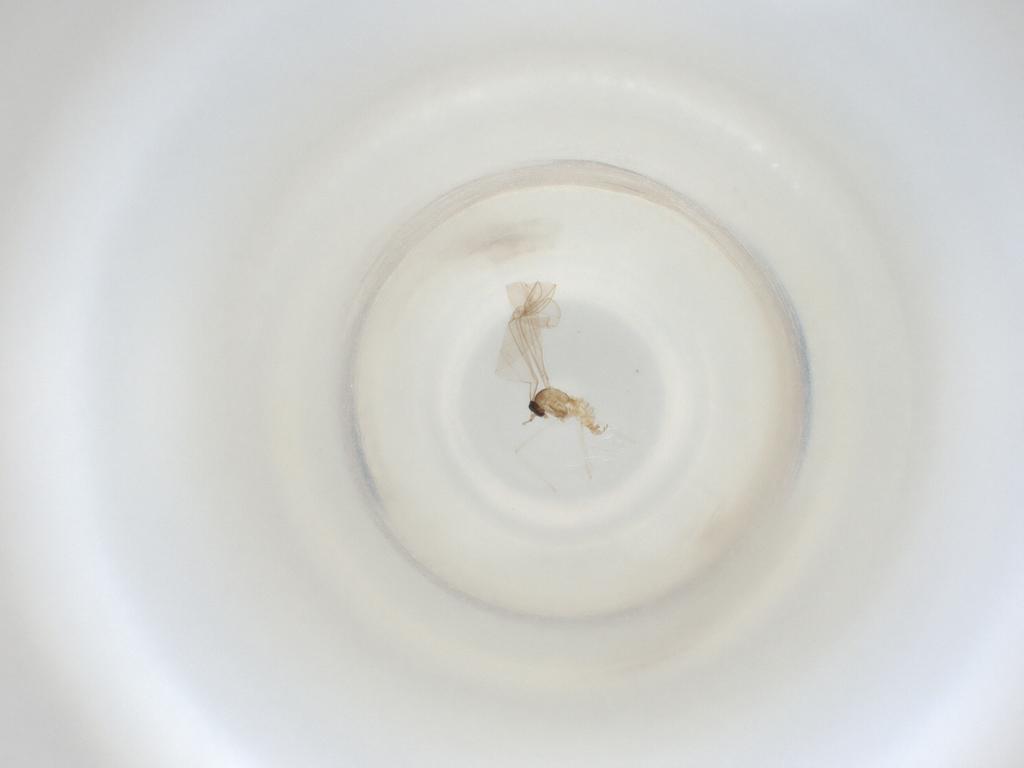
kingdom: Animalia
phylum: Arthropoda
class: Insecta
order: Diptera
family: Cecidomyiidae
